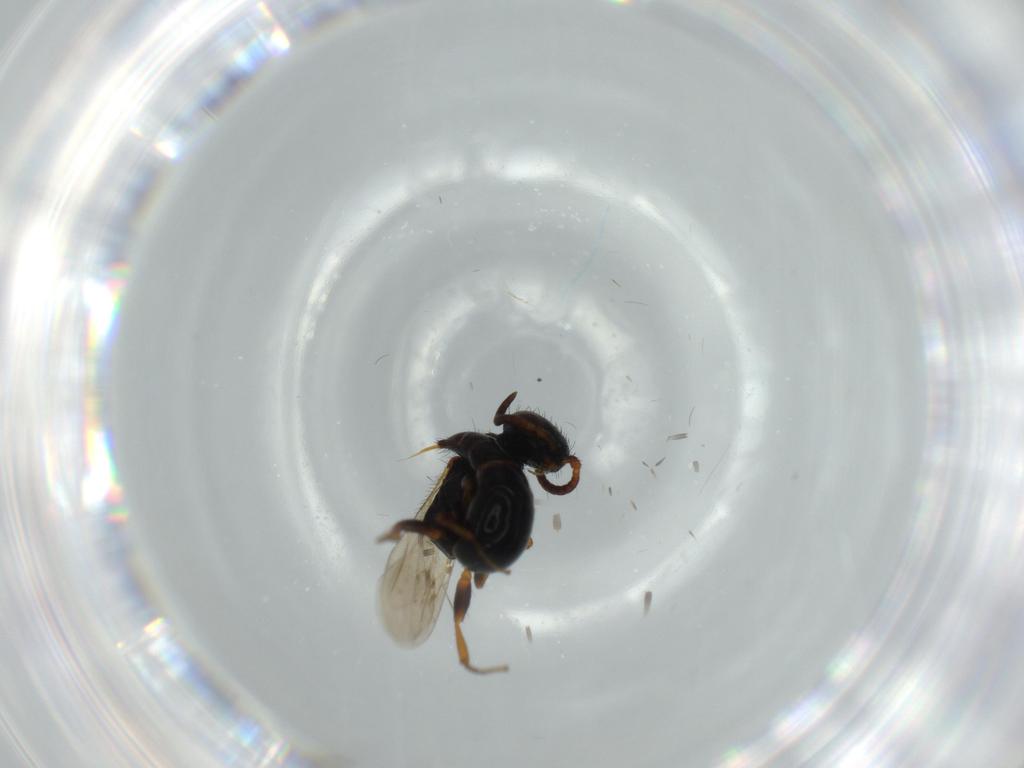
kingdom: Animalia
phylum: Arthropoda
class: Insecta
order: Hymenoptera
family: Bethylidae
